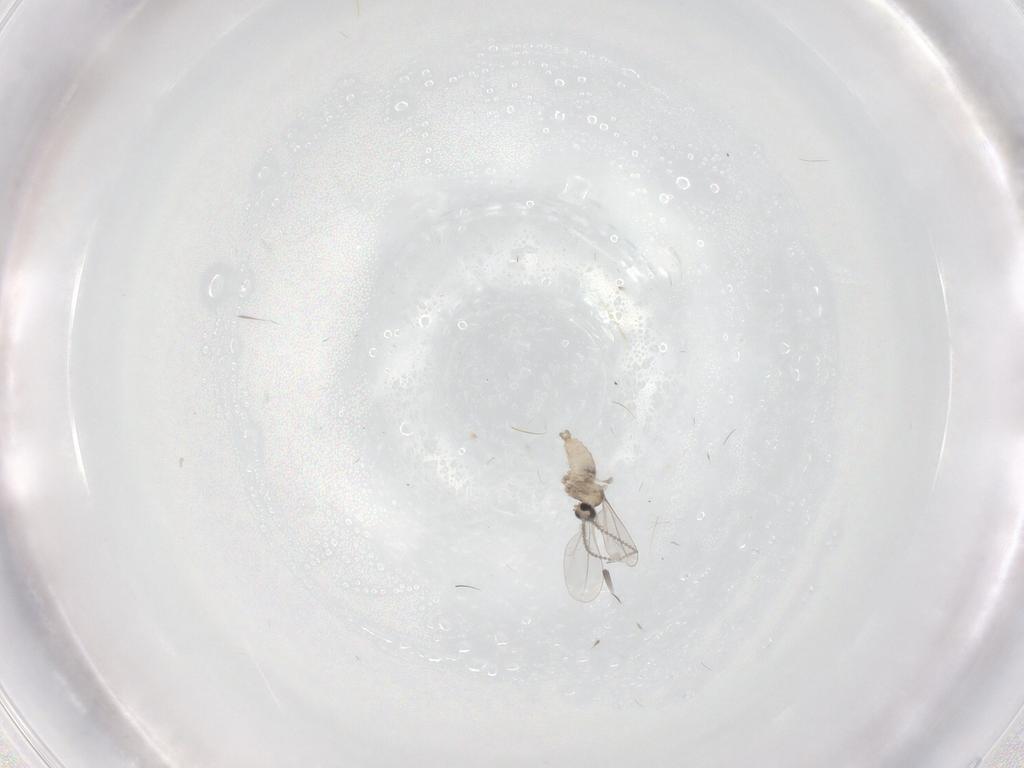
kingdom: Animalia
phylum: Arthropoda
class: Insecta
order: Diptera
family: Cecidomyiidae
